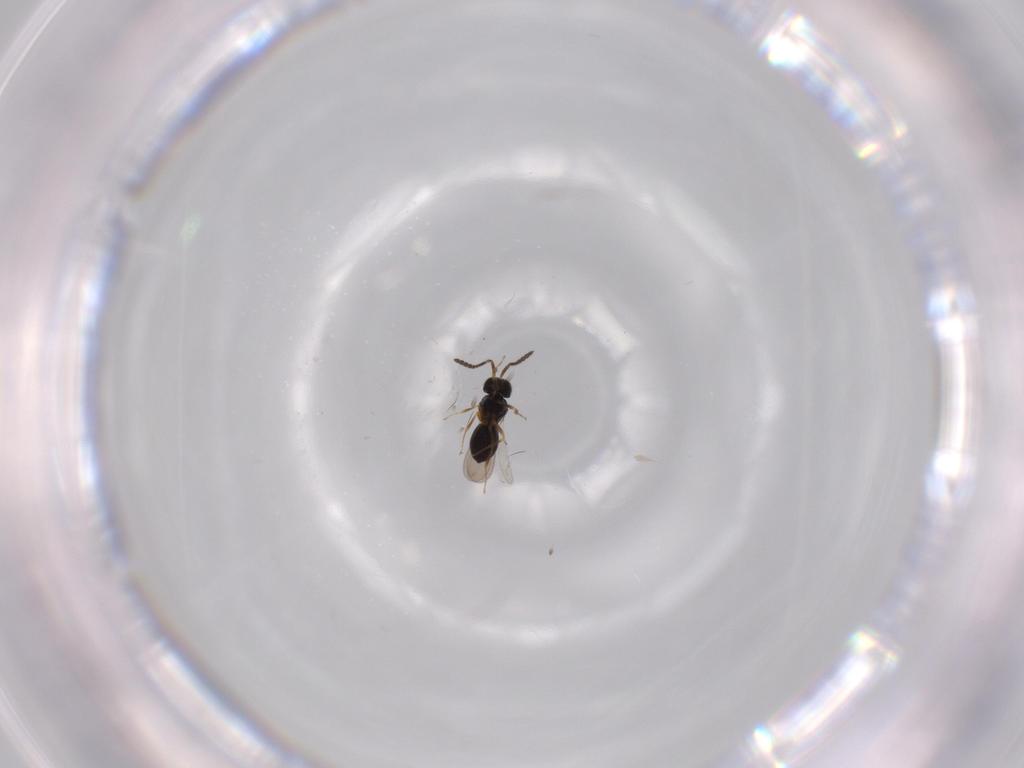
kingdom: Animalia
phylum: Arthropoda
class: Insecta
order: Hymenoptera
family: Scelionidae
